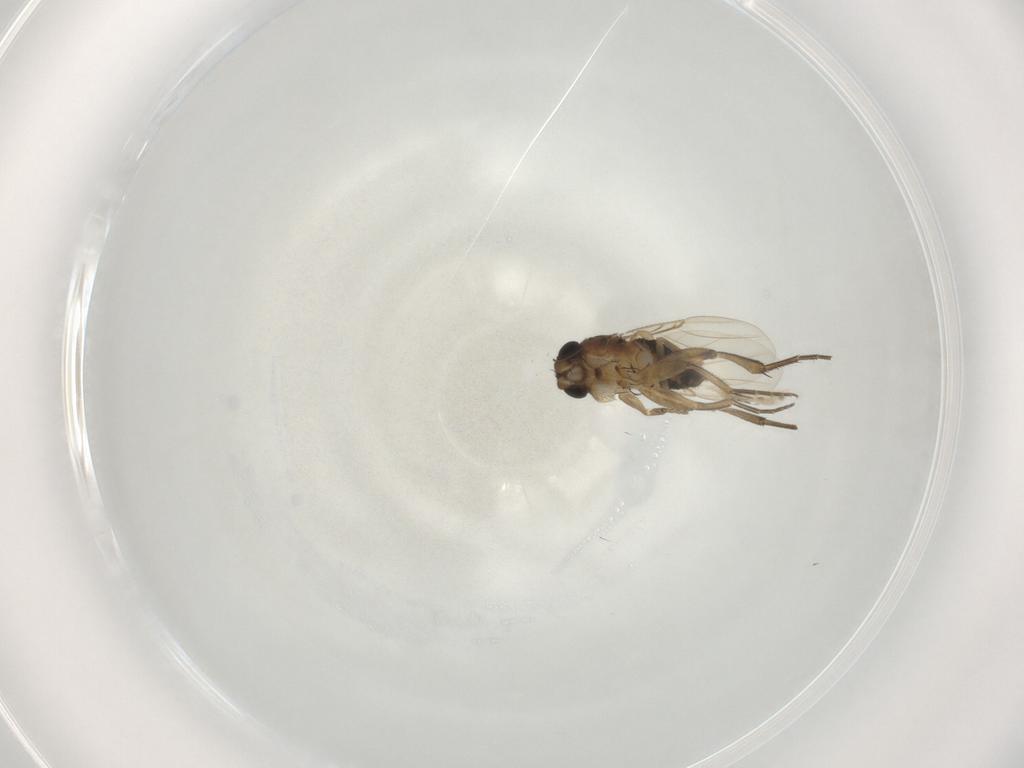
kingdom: Animalia
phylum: Arthropoda
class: Insecta
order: Diptera
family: Chironomidae
